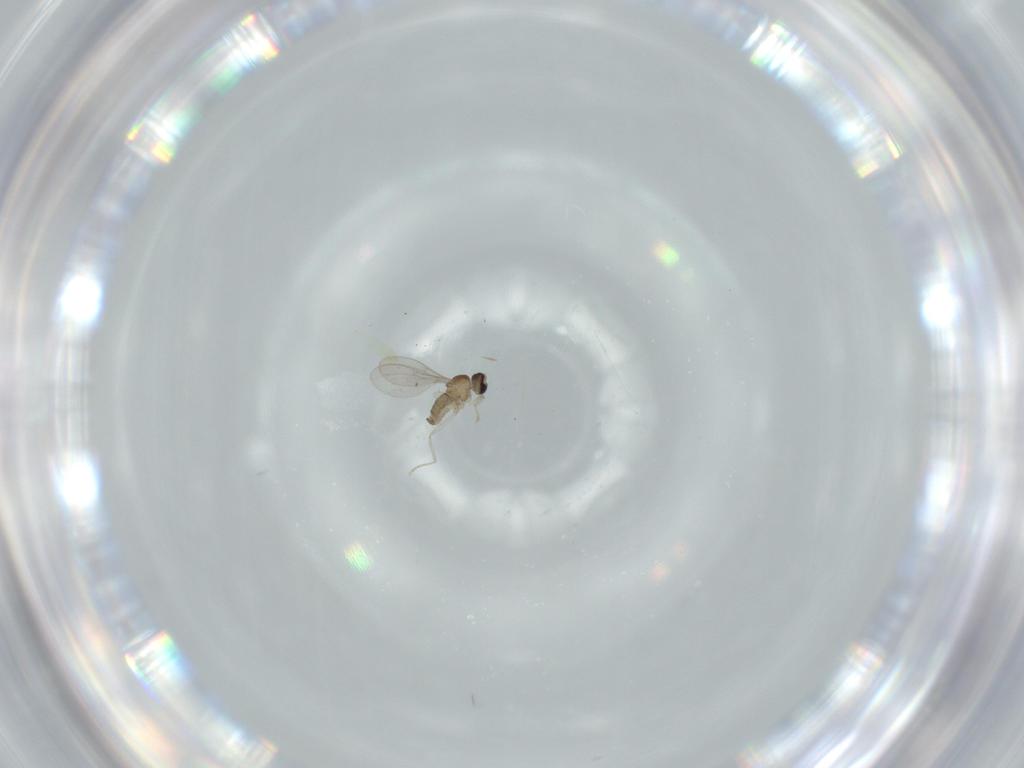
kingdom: Animalia
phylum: Arthropoda
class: Insecta
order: Diptera
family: Cecidomyiidae
